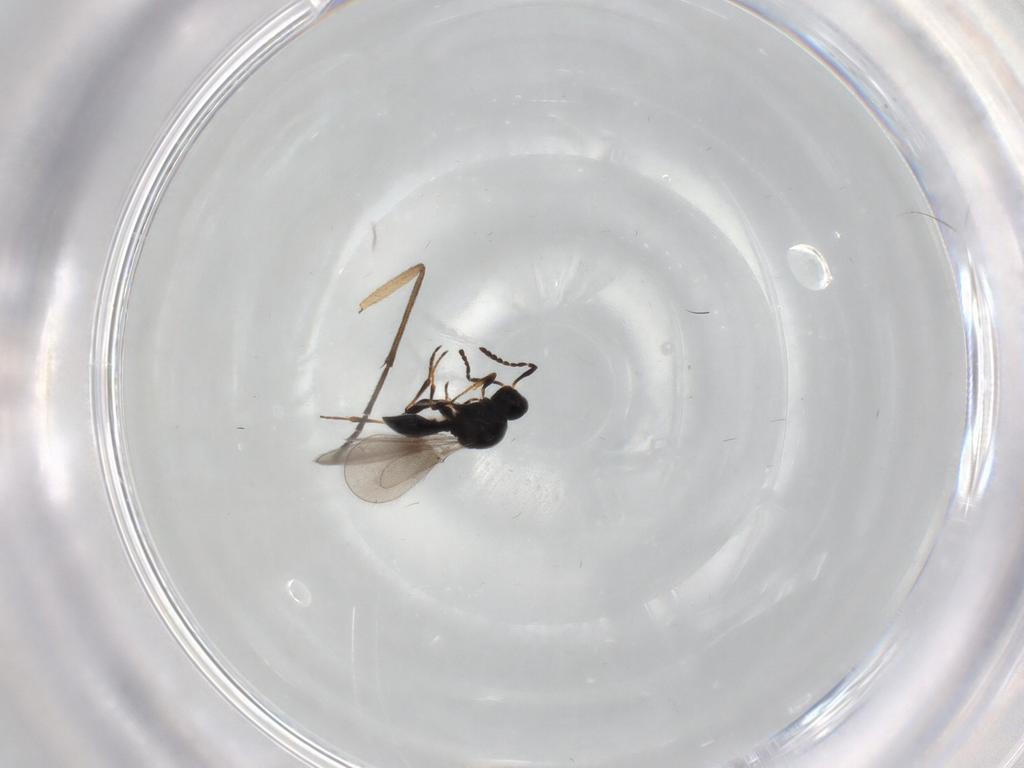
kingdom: Animalia
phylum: Arthropoda
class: Insecta
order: Hymenoptera
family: Platygastridae
